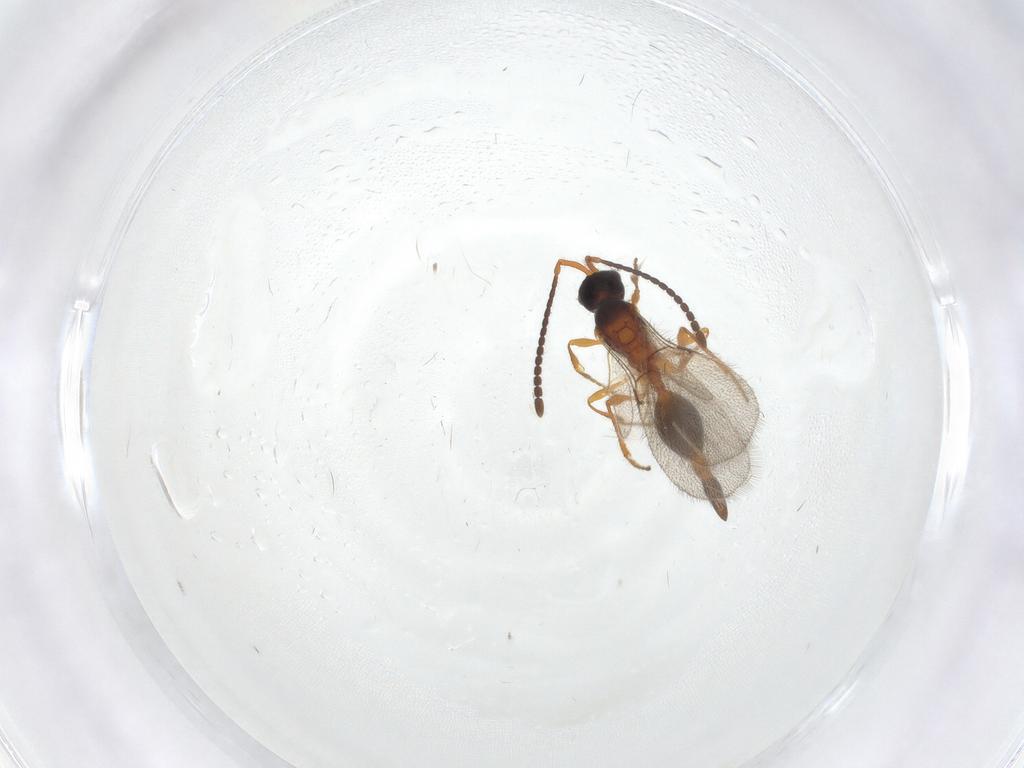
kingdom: Animalia
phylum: Arthropoda
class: Insecta
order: Hymenoptera
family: Diapriidae
